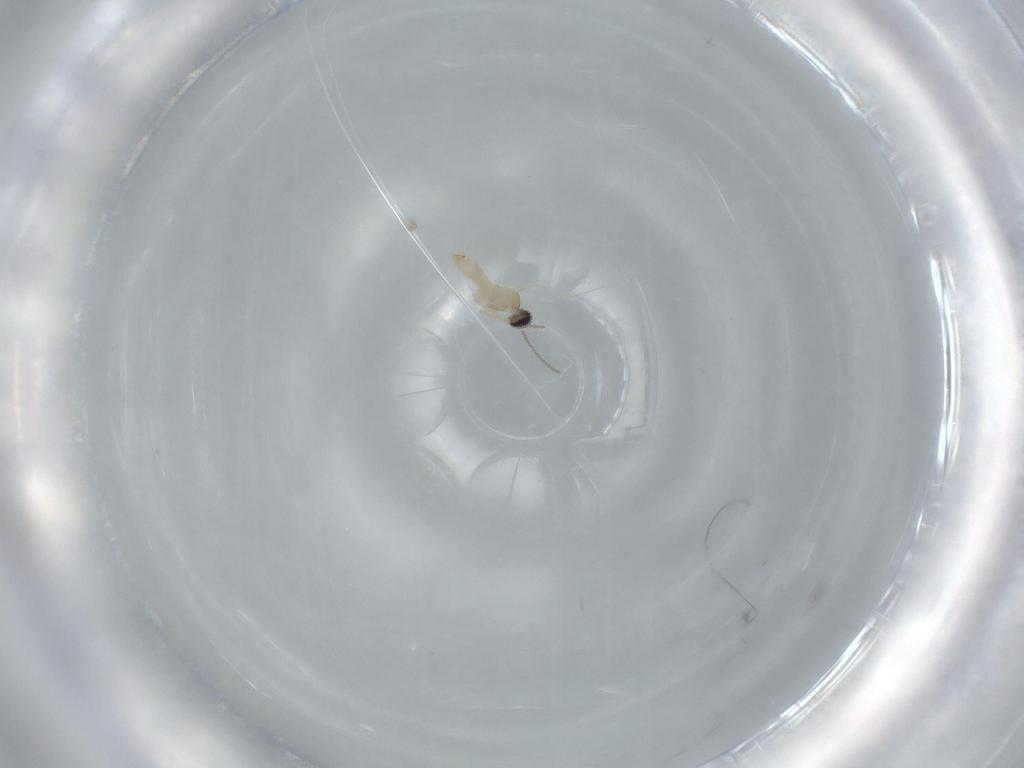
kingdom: Animalia
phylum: Arthropoda
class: Insecta
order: Diptera
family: Cecidomyiidae
